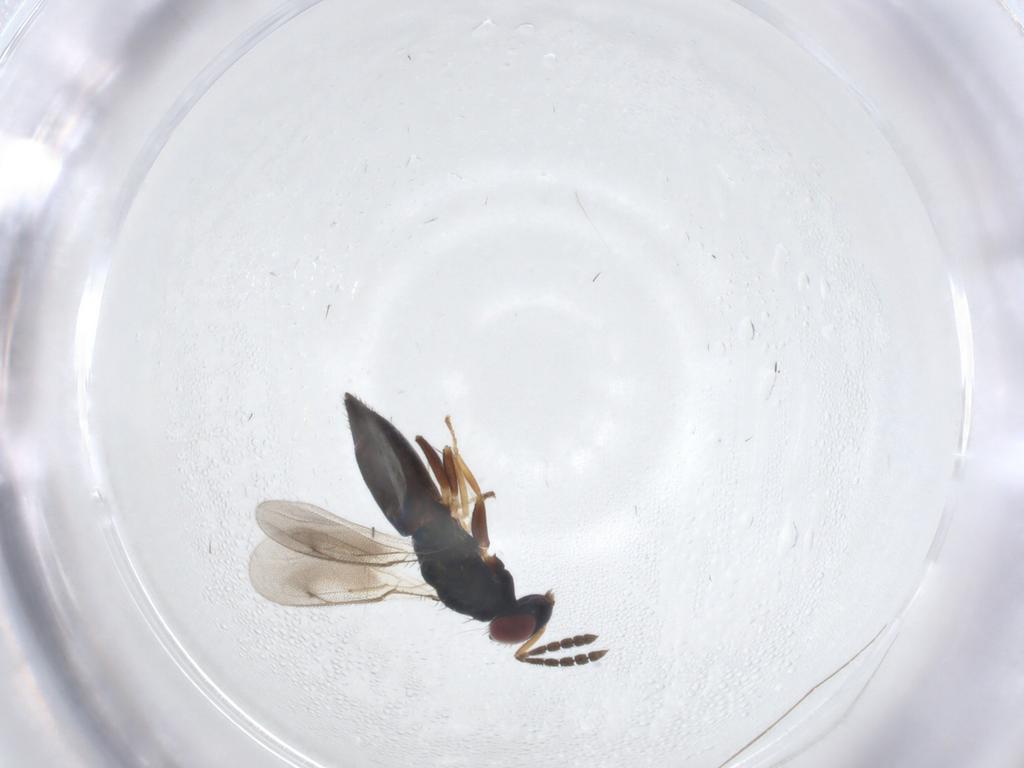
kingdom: Animalia
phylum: Arthropoda
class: Insecta
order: Hymenoptera
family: Eulophidae
